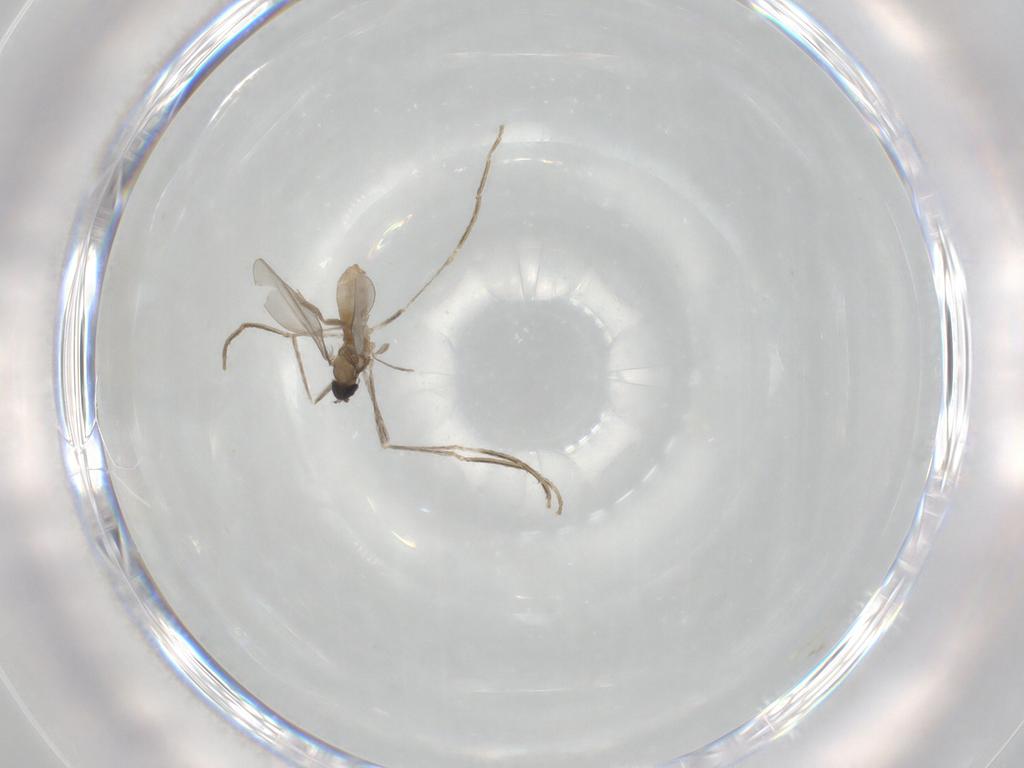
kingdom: Animalia
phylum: Arthropoda
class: Insecta
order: Diptera
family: Cecidomyiidae
